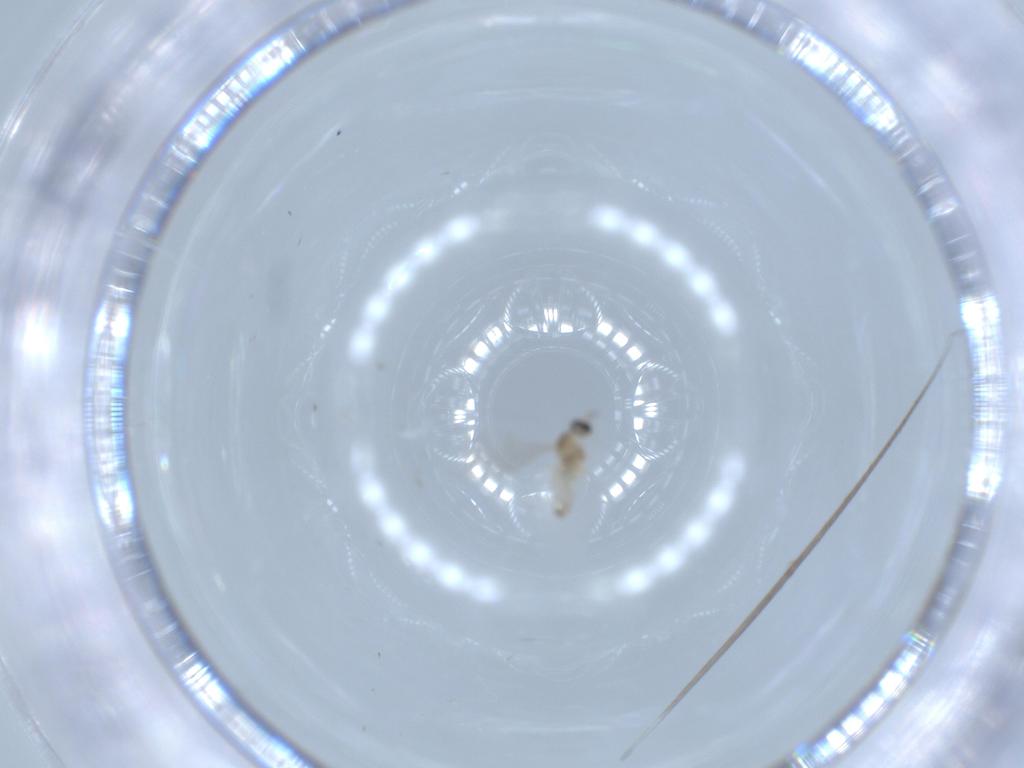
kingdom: Animalia
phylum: Arthropoda
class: Insecta
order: Diptera
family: Cecidomyiidae
